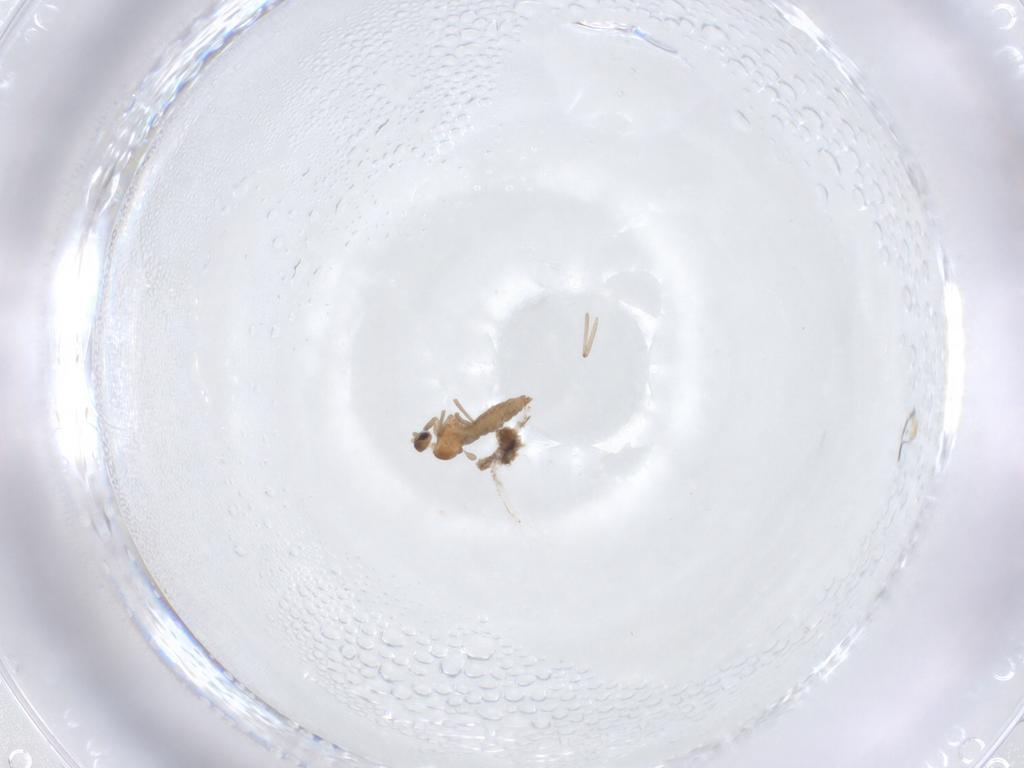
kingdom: Animalia
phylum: Arthropoda
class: Insecta
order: Diptera
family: Cecidomyiidae
